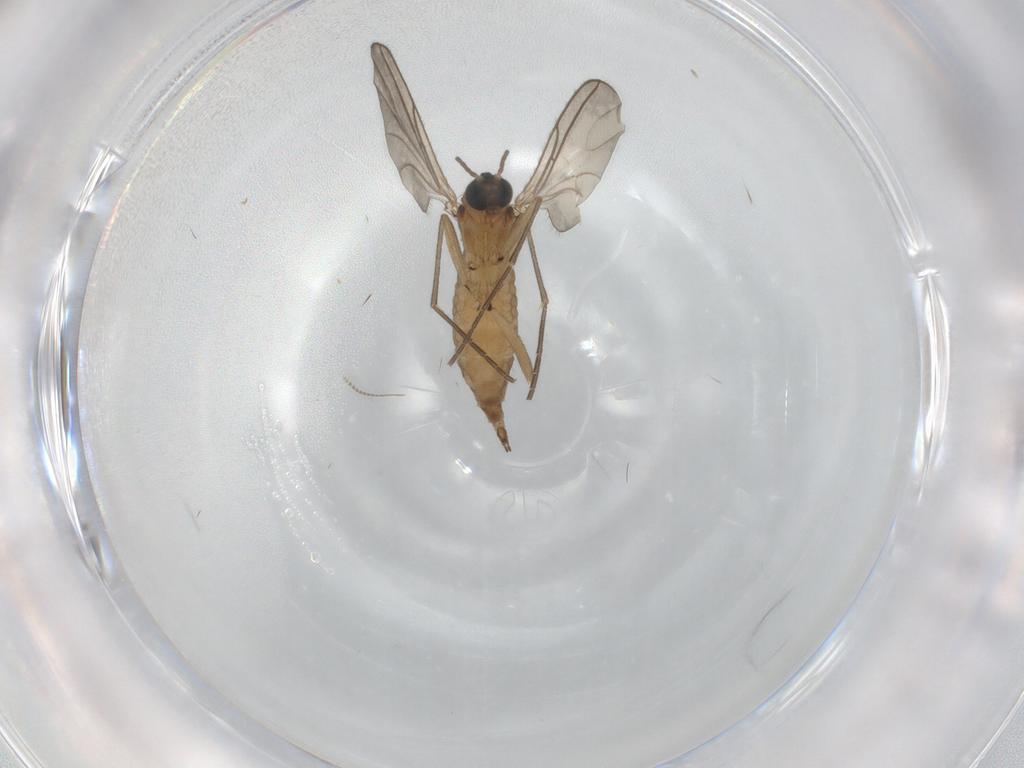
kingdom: Animalia
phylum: Arthropoda
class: Insecta
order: Diptera
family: Sciaridae
